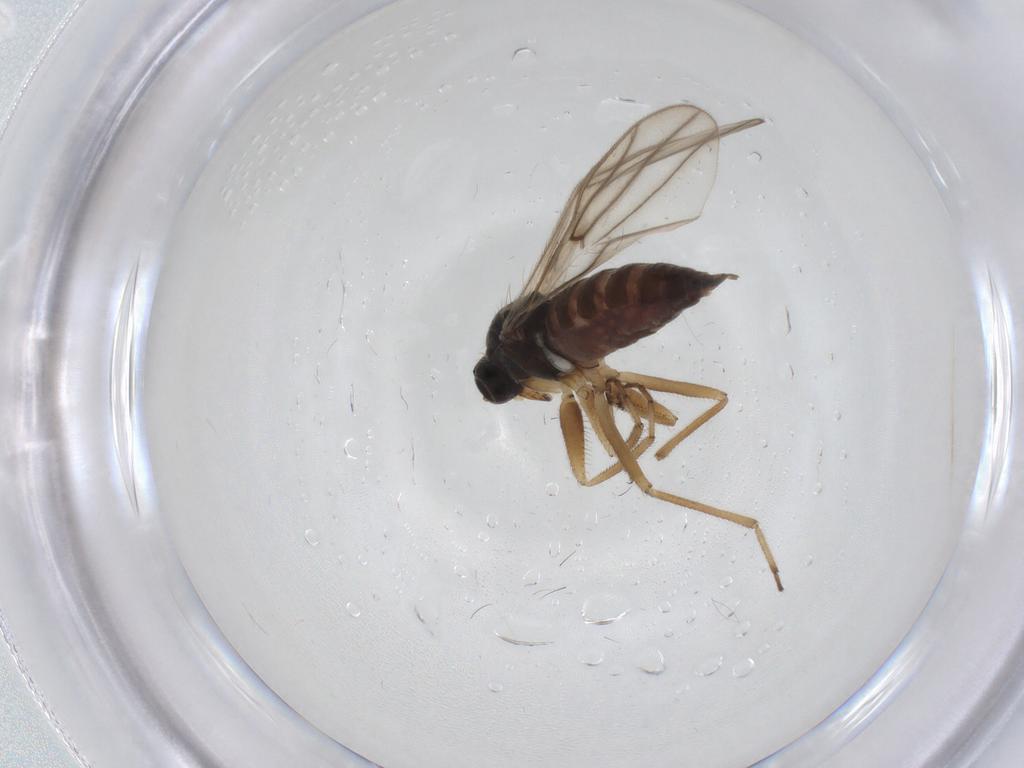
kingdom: Animalia
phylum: Arthropoda
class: Insecta
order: Diptera
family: Hybotidae
